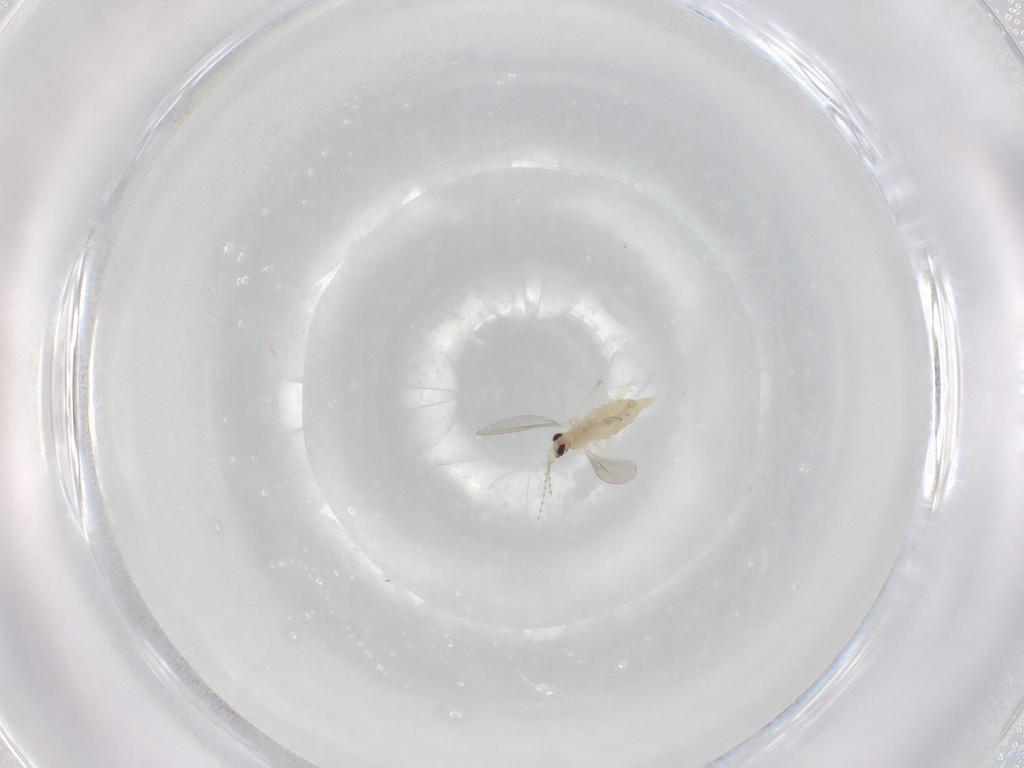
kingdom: Animalia
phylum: Arthropoda
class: Insecta
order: Diptera
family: Cecidomyiidae
